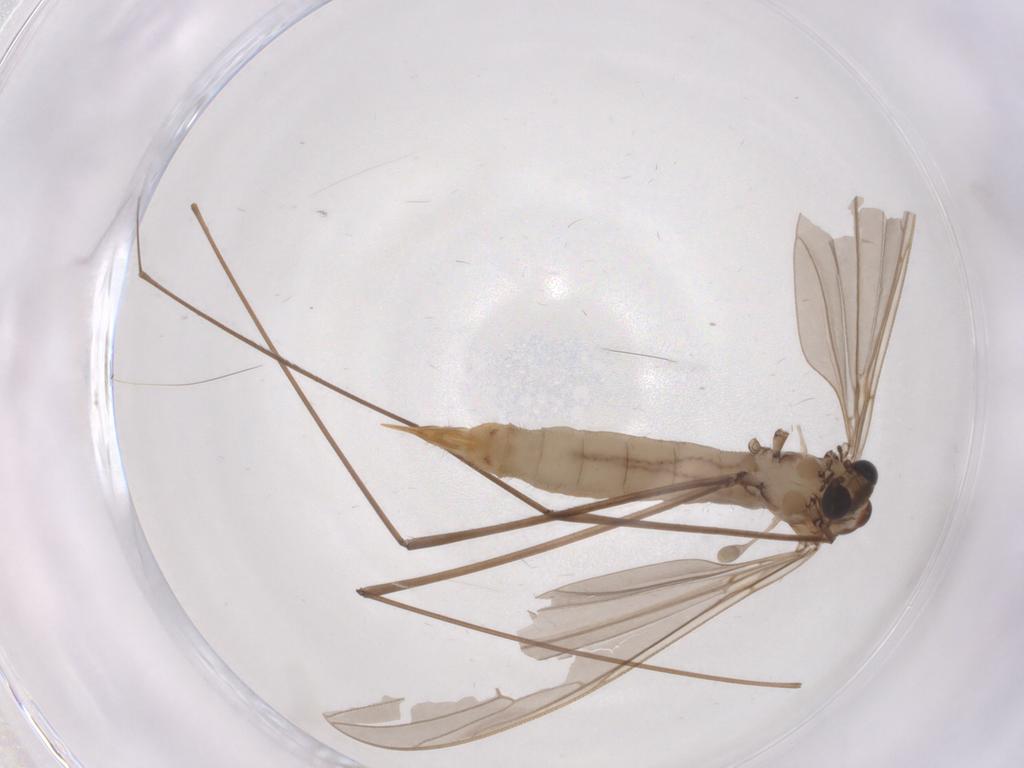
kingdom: Animalia
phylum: Arthropoda
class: Insecta
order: Diptera
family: Limoniidae
